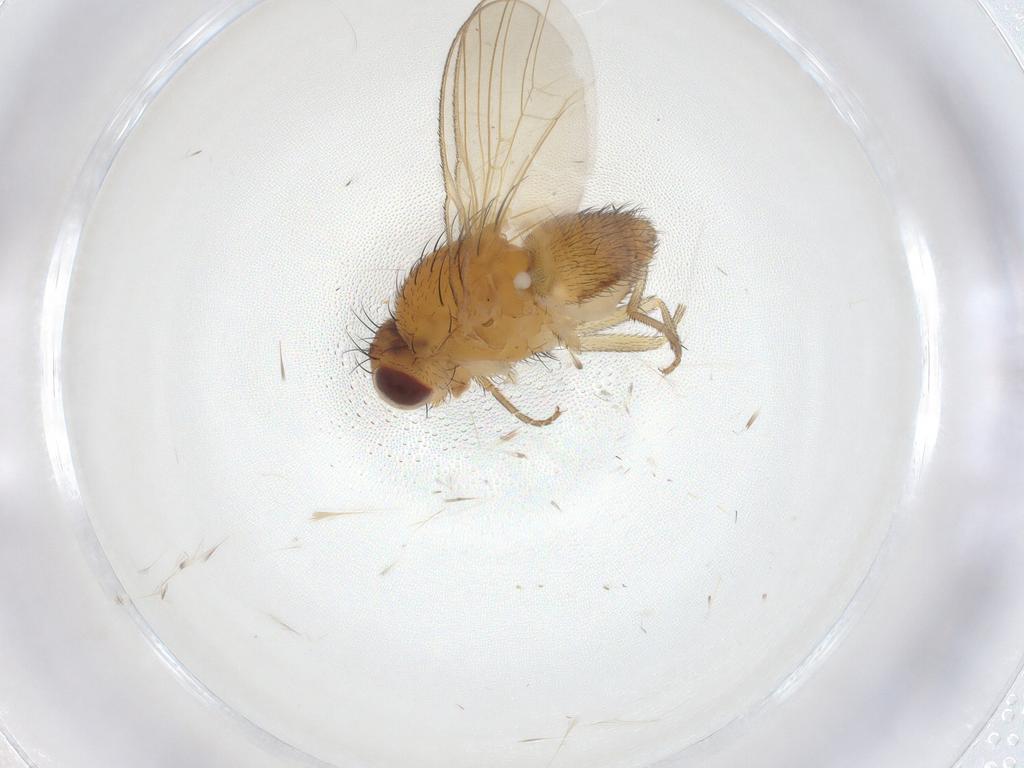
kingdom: Animalia
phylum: Arthropoda
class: Insecta
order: Diptera
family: Heleomyzidae
